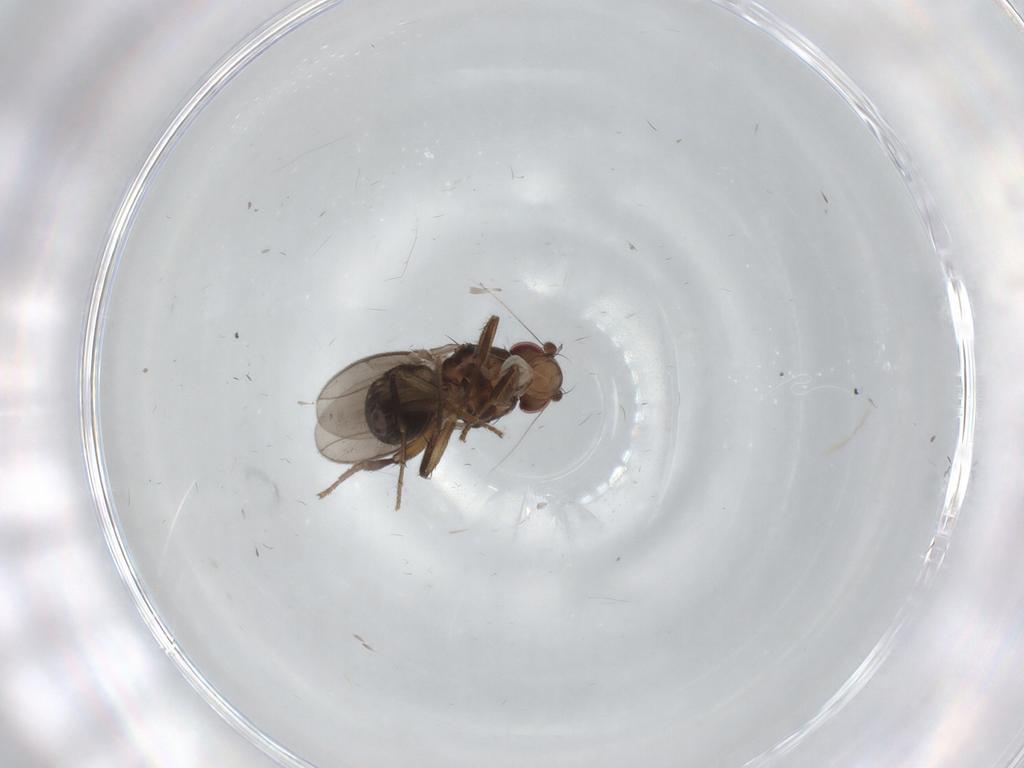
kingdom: Animalia
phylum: Arthropoda
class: Insecta
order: Diptera
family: Sphaeroceridae
